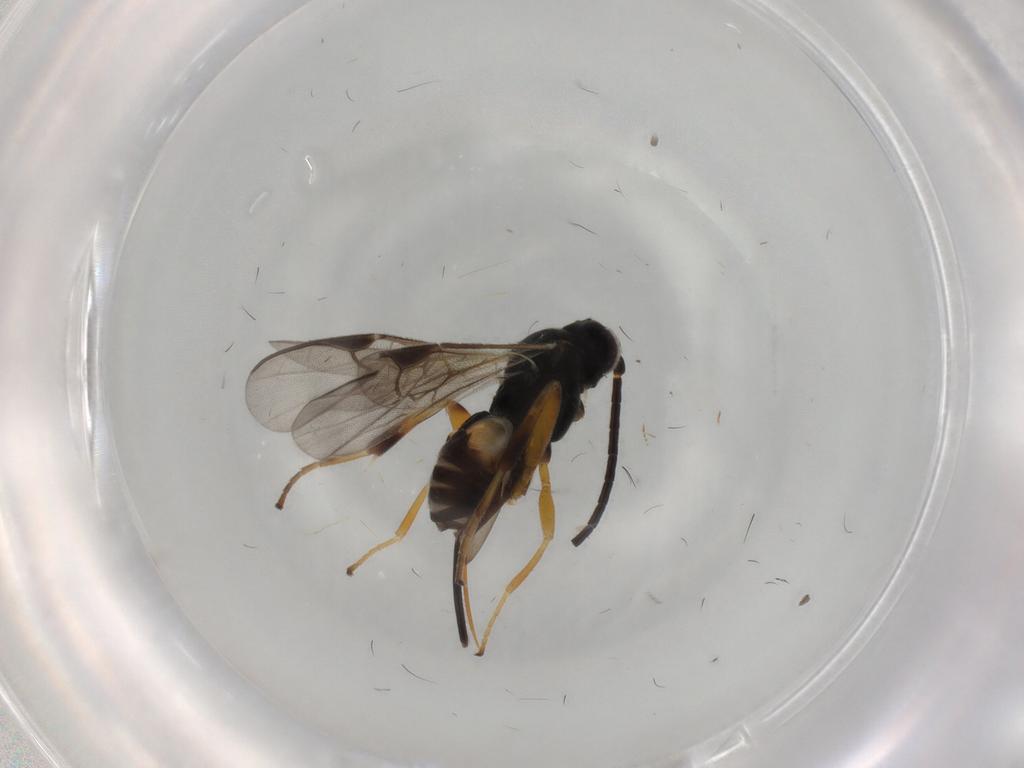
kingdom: Animalia
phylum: Arthropoda
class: Insecta
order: Hymenoptera
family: Braconidae
